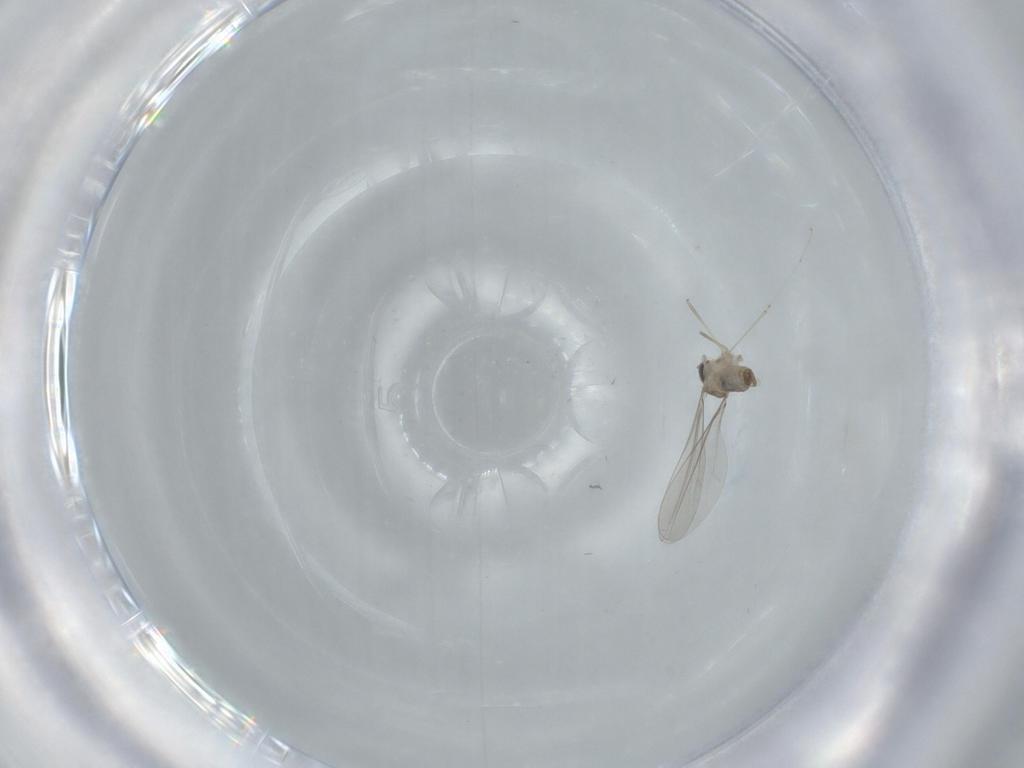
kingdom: Animalia
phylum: Arthropoda
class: Insecta
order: Diptera
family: Cecidomyiidae
